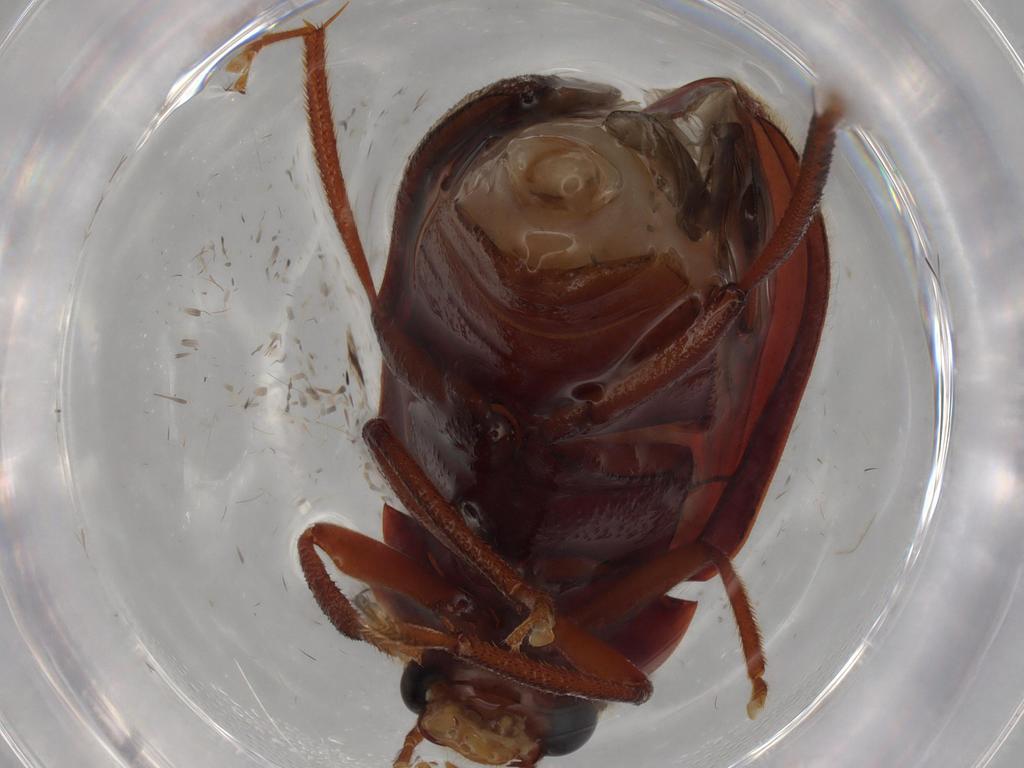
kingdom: Animalia
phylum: Arthropoda
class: Insecta
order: Coleoptera
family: Ptilodactylidae
